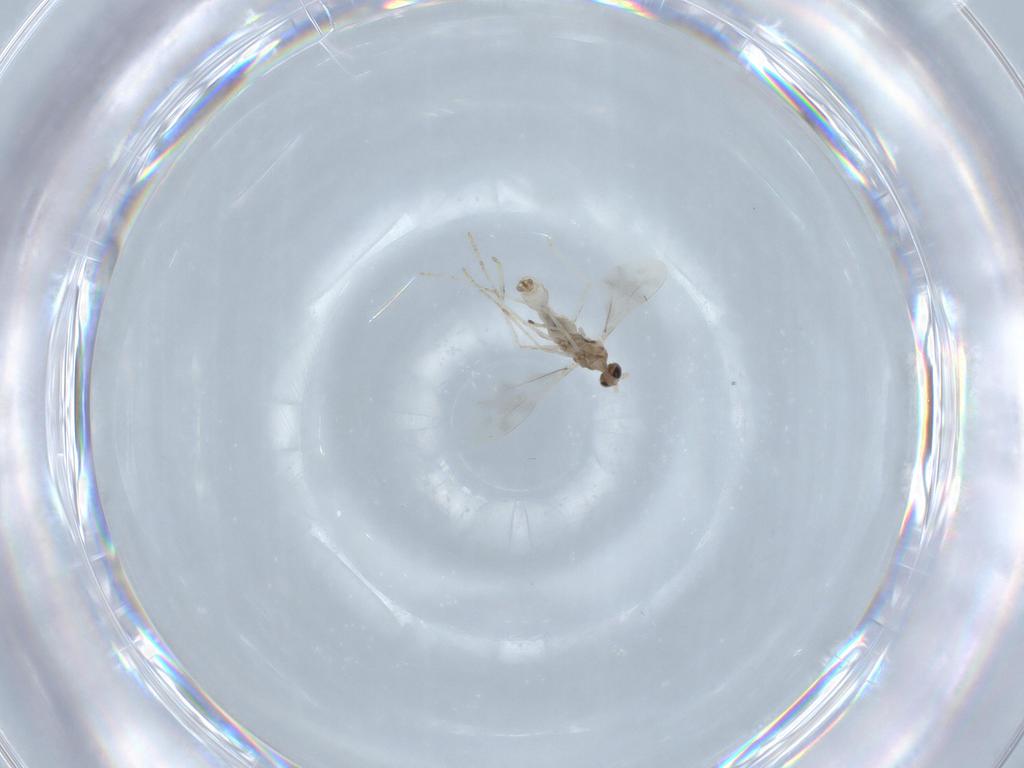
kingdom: Animalia
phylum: Arthropoda
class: Insecta
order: Diptera
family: Cecidomyiidae
